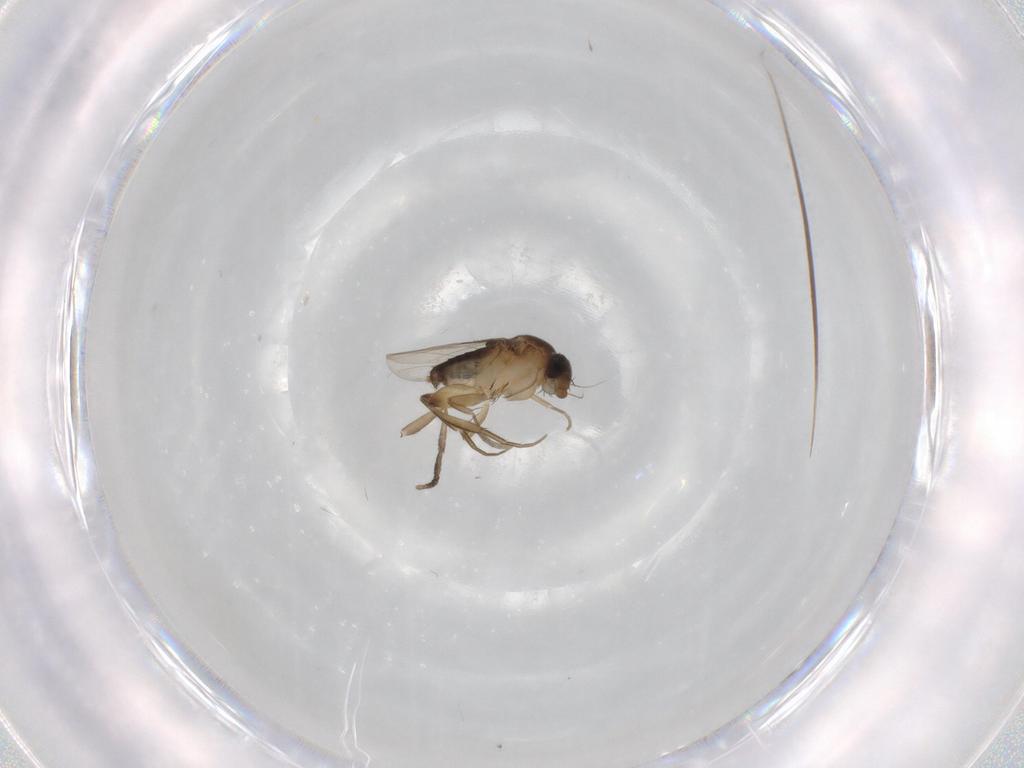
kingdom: Animalia
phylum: Arthropoda
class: Insecta
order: Diptera
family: Phoridae
